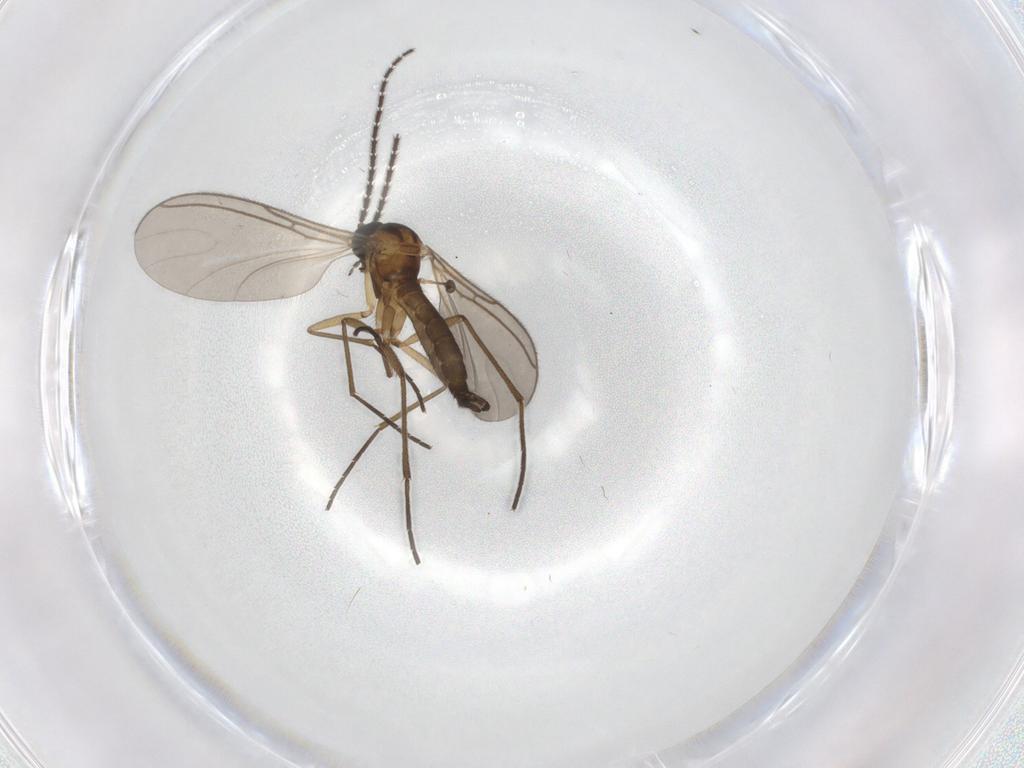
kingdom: Animalia
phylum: Arthropoda
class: Insecta
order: Diptera
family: Sciaridae
